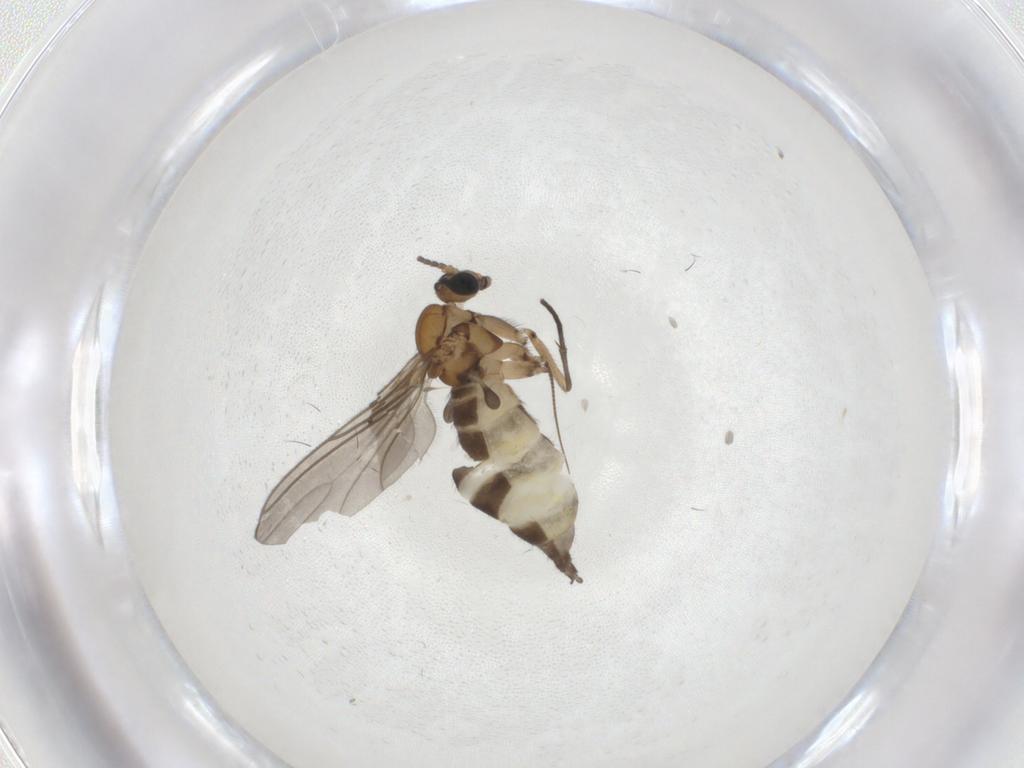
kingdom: Animalia
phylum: Arthropoda
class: Insecta
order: Diptera
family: Sciaridae
